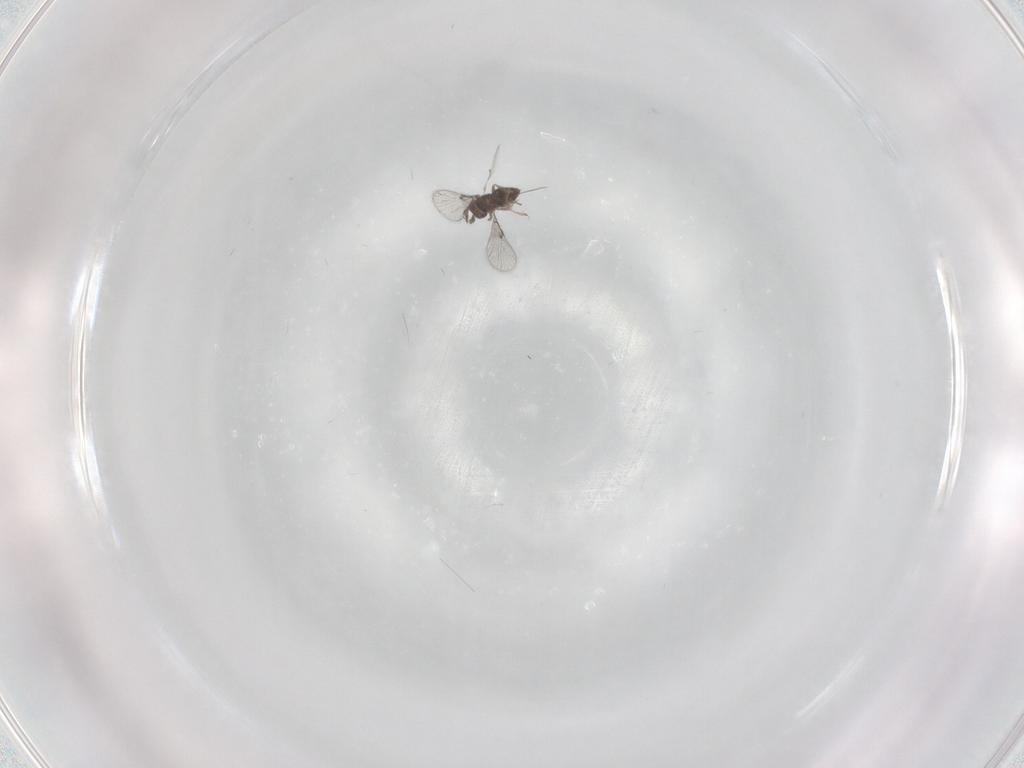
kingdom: Animalia
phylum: Arthropoda
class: Insecta
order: Hymenoptera
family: Trichogrammatidae
